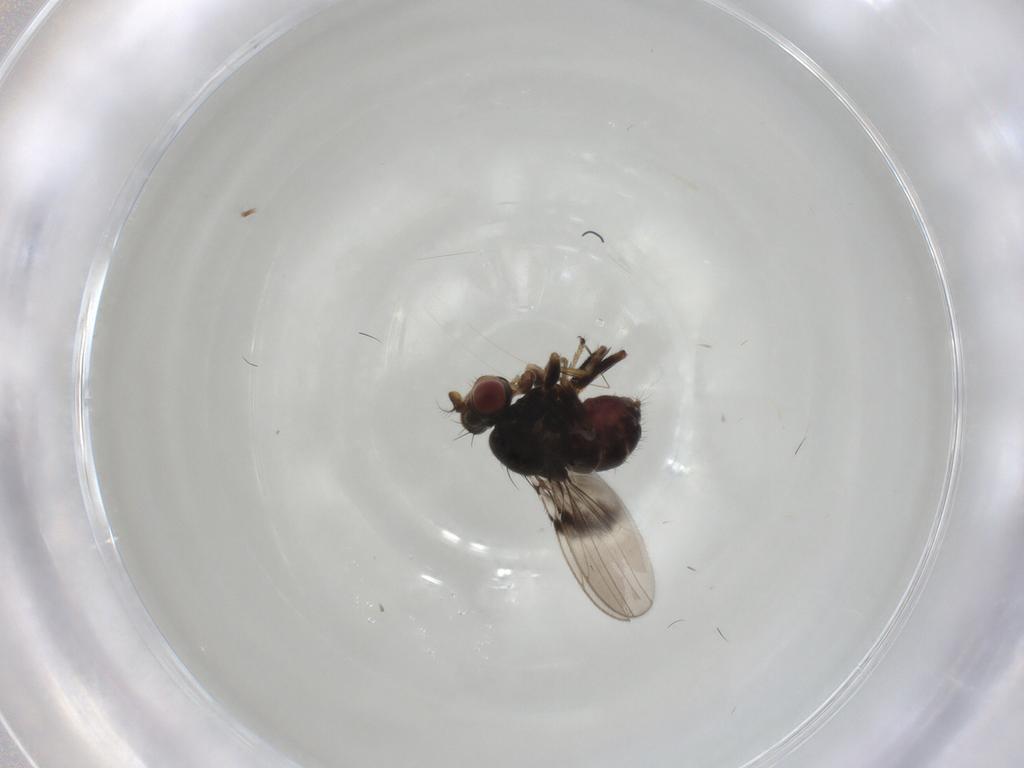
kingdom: Animalia
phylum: Arthropoda
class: Insecta
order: Diptera
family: Ephydridae
